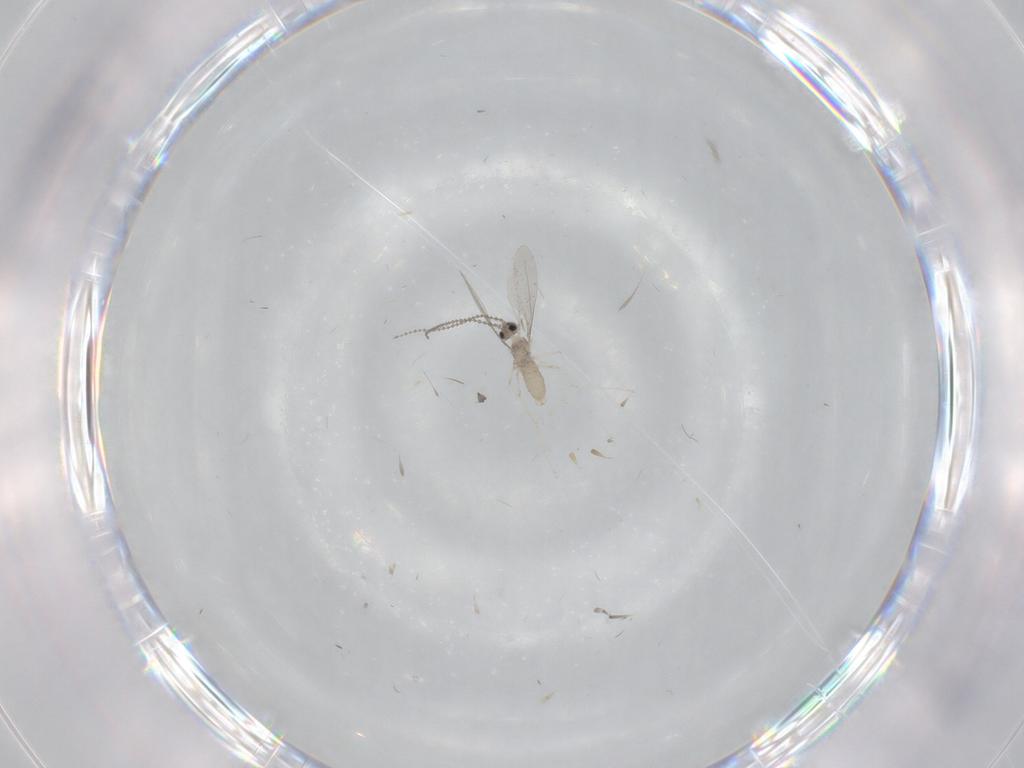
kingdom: Animalia
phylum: Arthropoda
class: Insecta
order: Diptera
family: Cecidomyiidae
